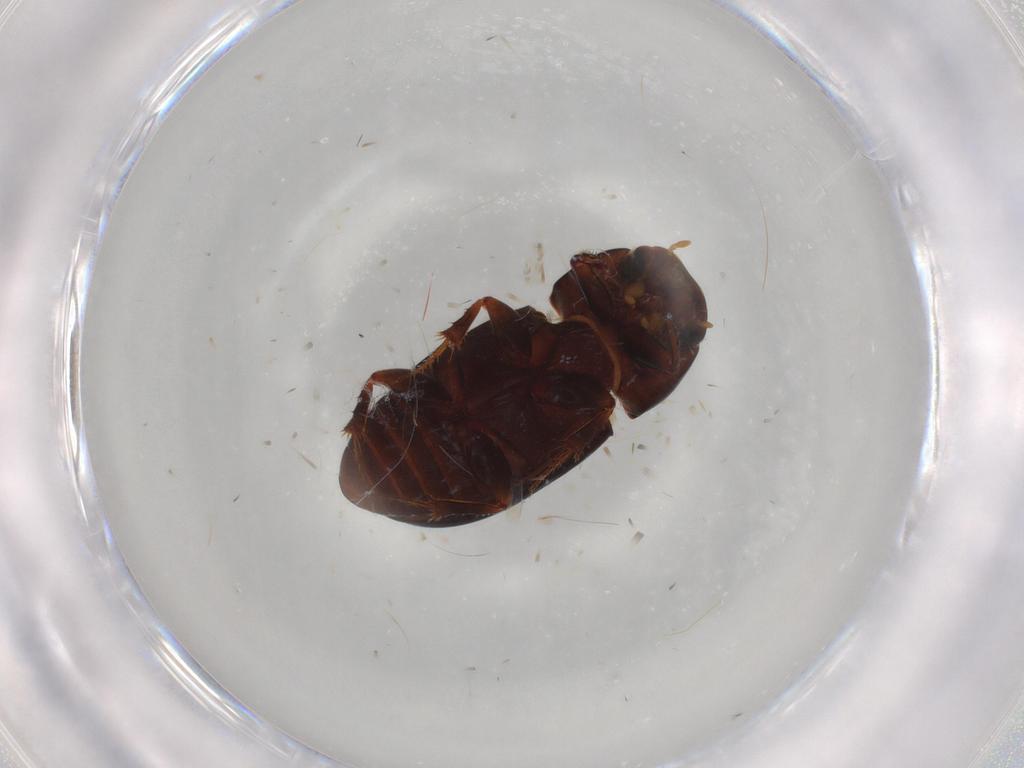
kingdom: Animalia
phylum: Arthropoda
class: Insecta
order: Coleoptera
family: Scarabaeidae
